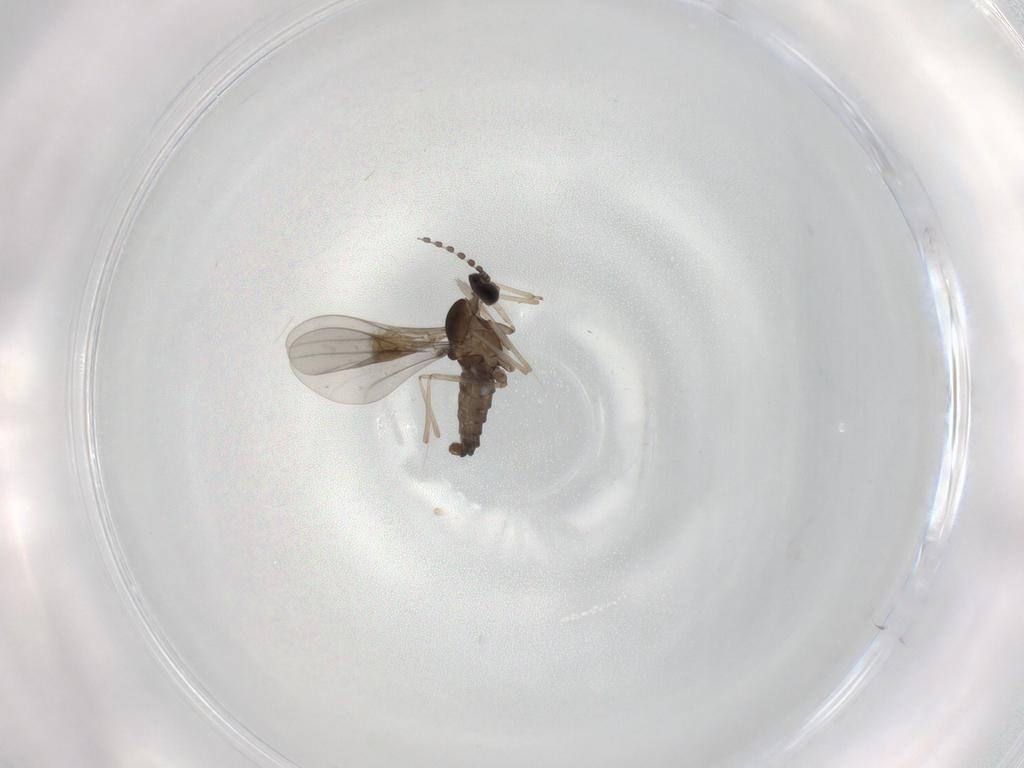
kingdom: Animalia
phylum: Arthropoda
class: Insecta
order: Diptera
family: Cecidomyiidae
